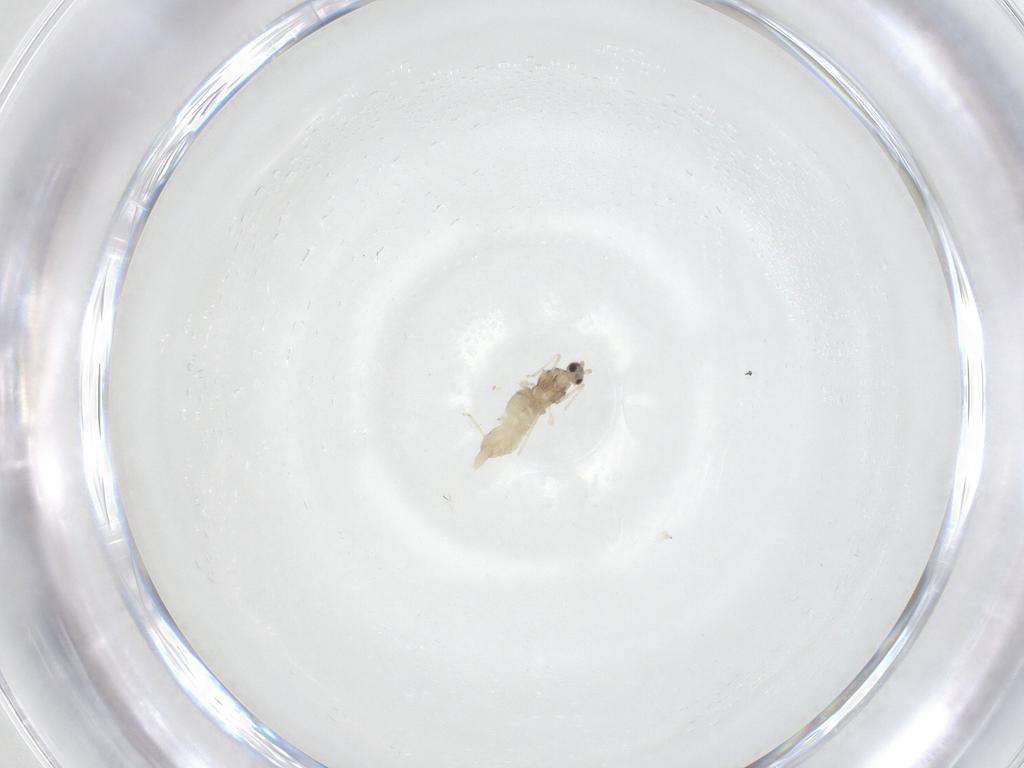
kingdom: Animalia
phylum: Arthropoda
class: Insecta
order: Diptera
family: Cecidomyiidae
